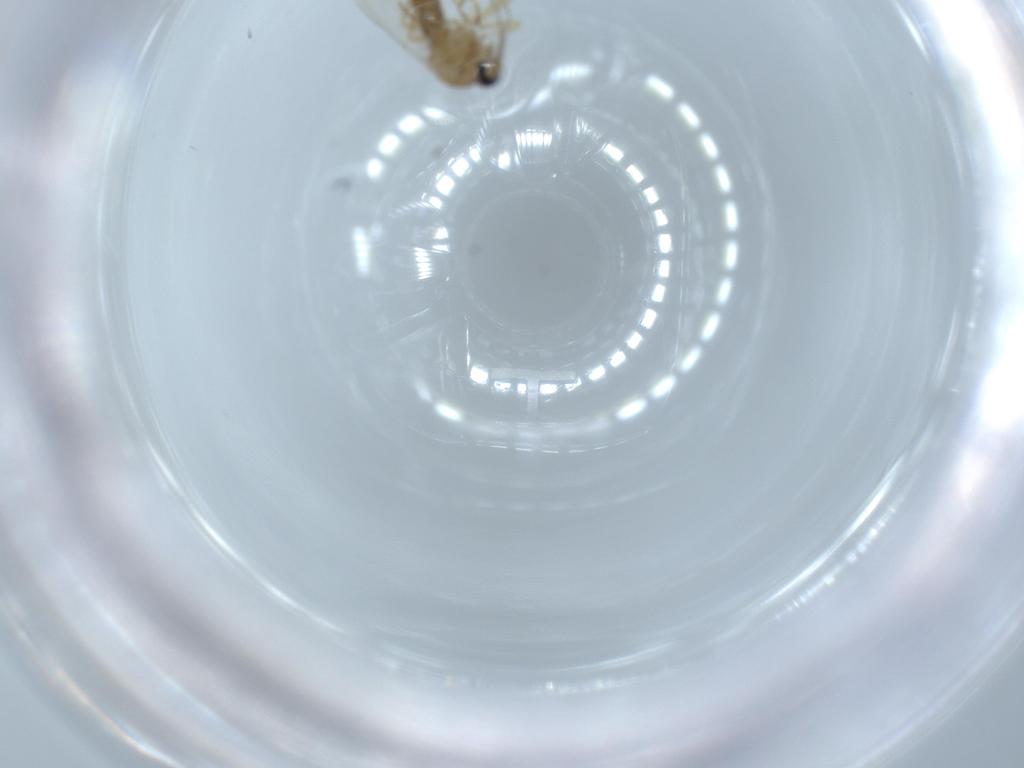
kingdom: Animalia
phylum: Arthropoda
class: Insecta
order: Diptera
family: Ceratopogonidae
